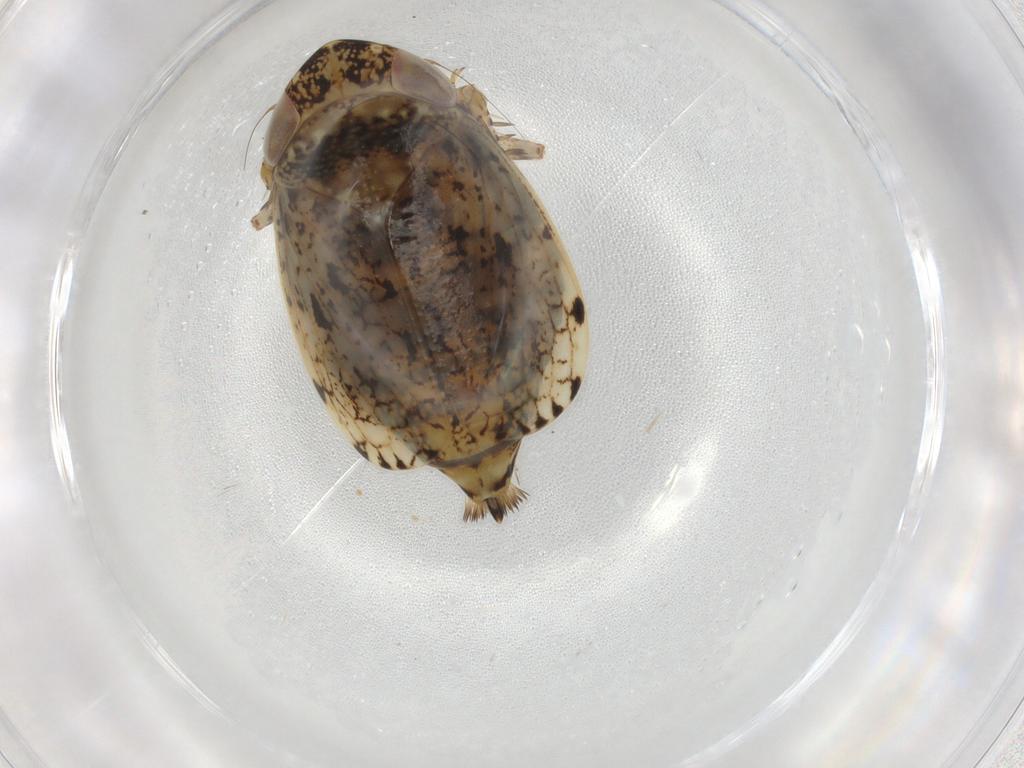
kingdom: Animalia
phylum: Arthropoda
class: Insecta
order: Hemiptera
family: Cicadellidae
